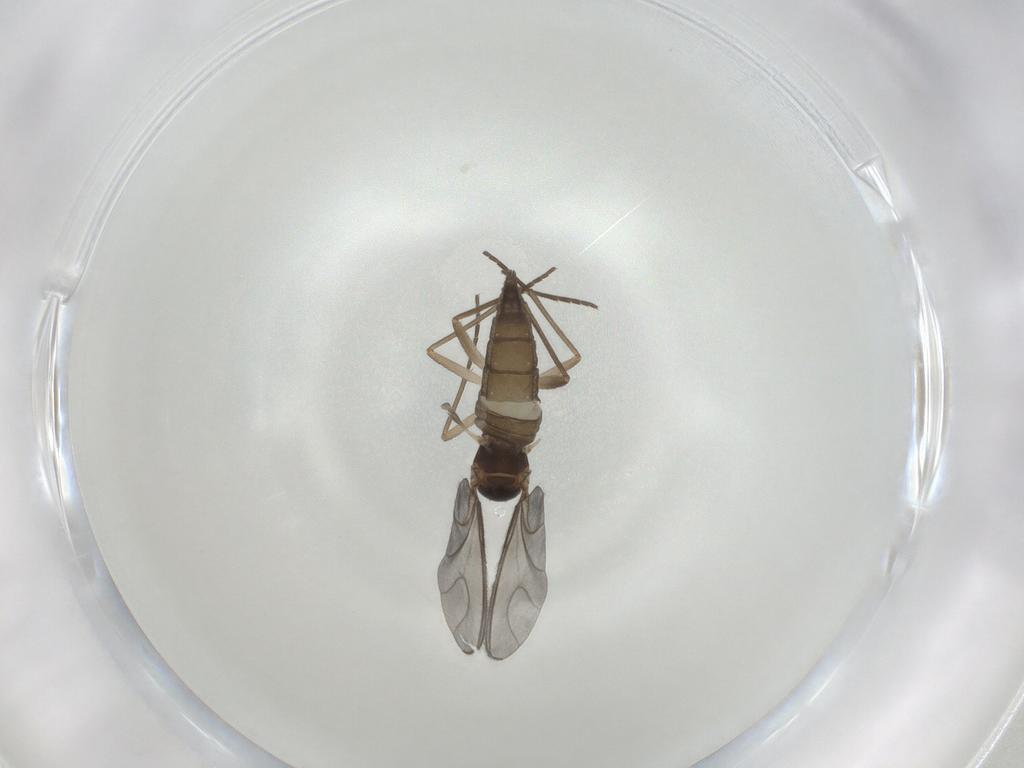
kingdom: Animalia
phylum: Arthropoda
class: Insecta
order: Diptera
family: Sciaridae
